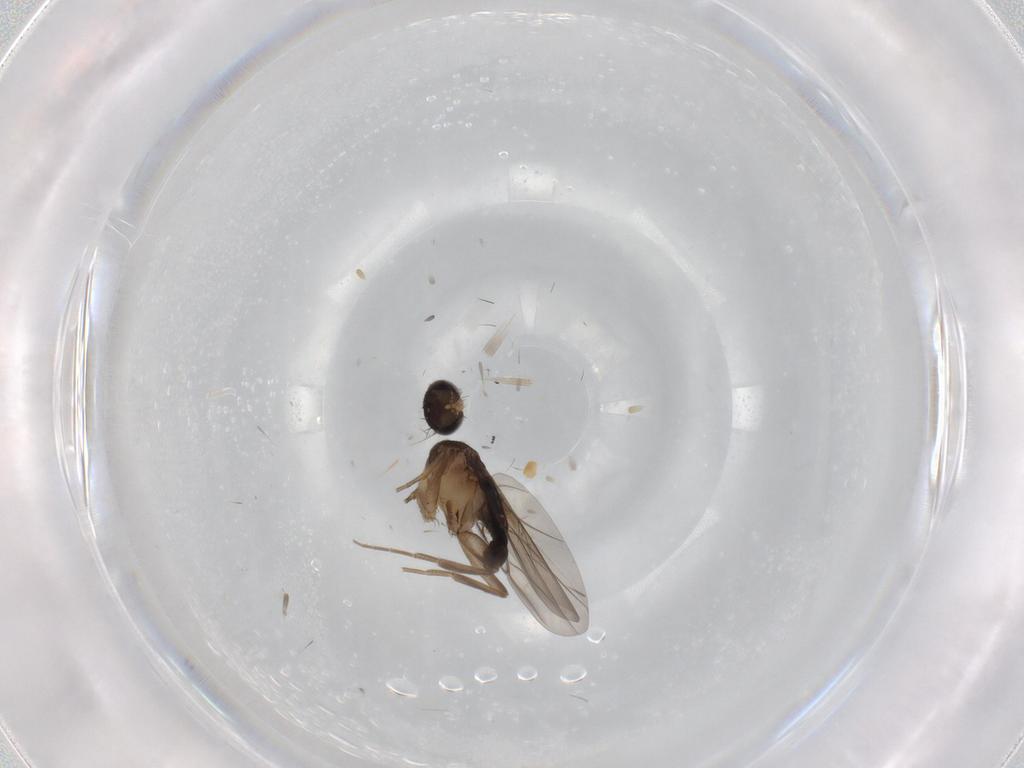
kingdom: Animalia
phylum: Arthropoda
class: Insecta
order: Diptera
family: Phoridae
